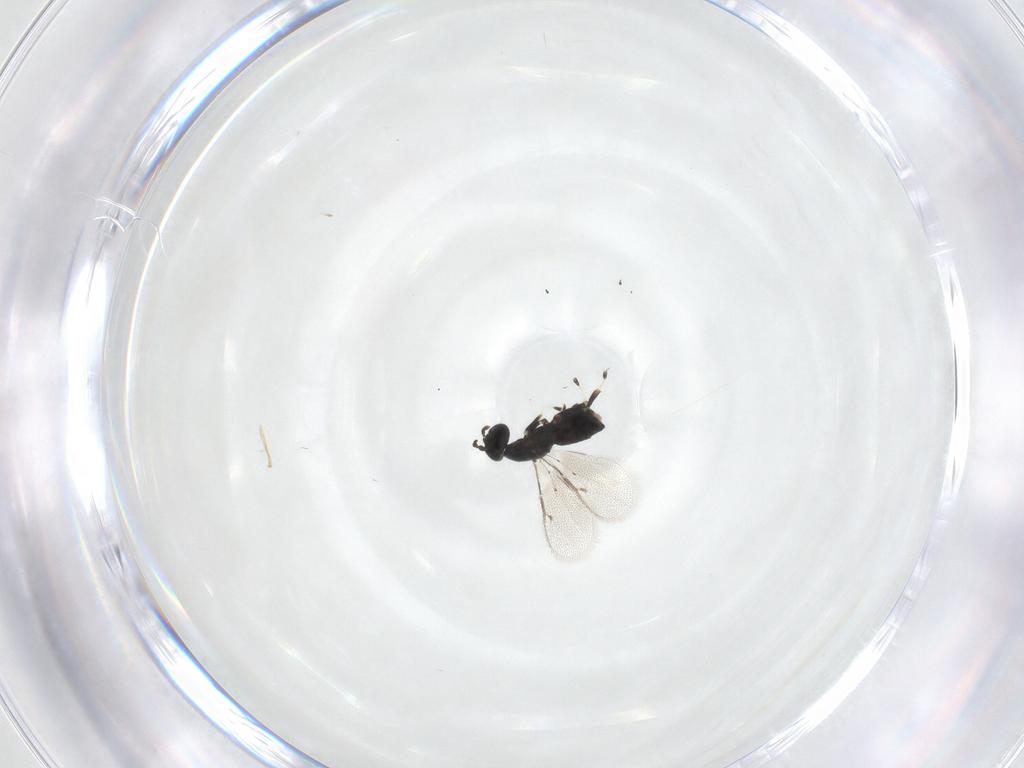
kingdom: Animalia
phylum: Arthropoda
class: Insecta
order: Hymenoptera
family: Eulophidae
